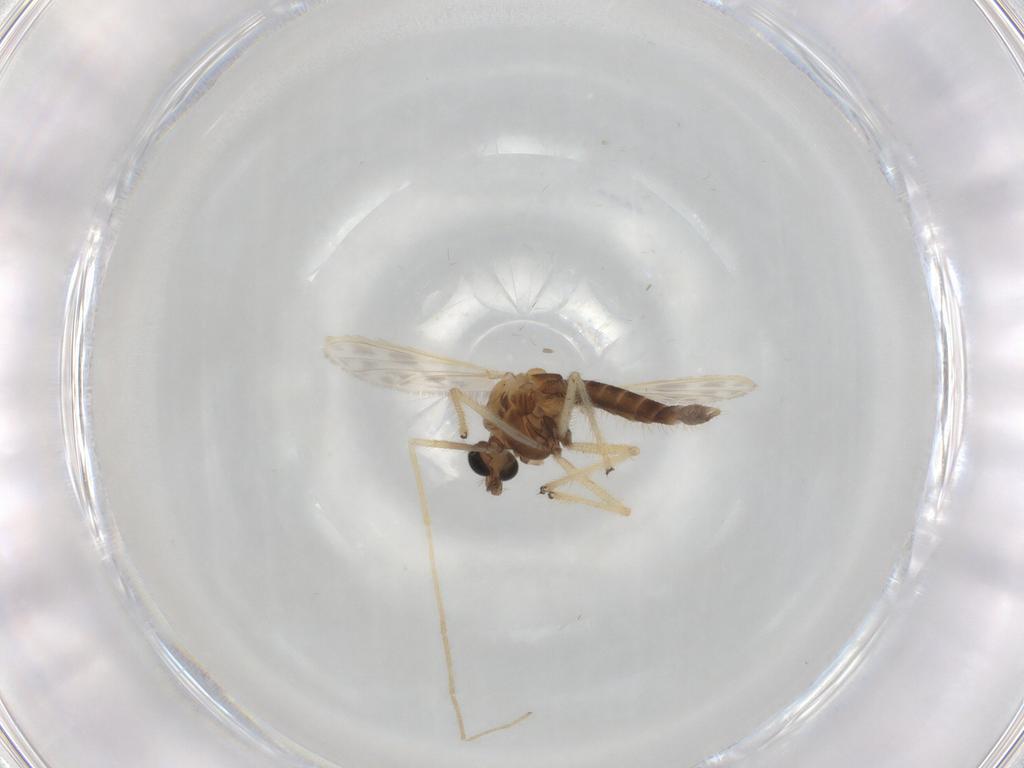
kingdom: Animalia
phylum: Arthropoda
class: Insecta
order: Diptera
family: Chironomidae
